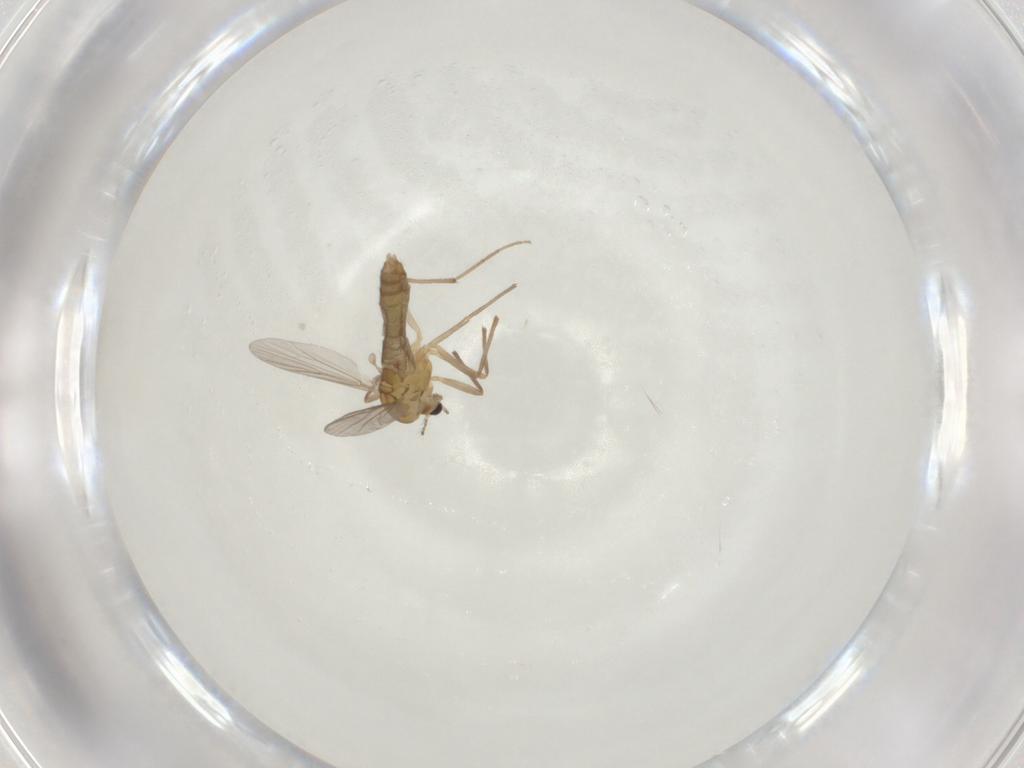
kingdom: Animalia
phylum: Arthropoda
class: Insecta
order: Diptera
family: Chironomidae
